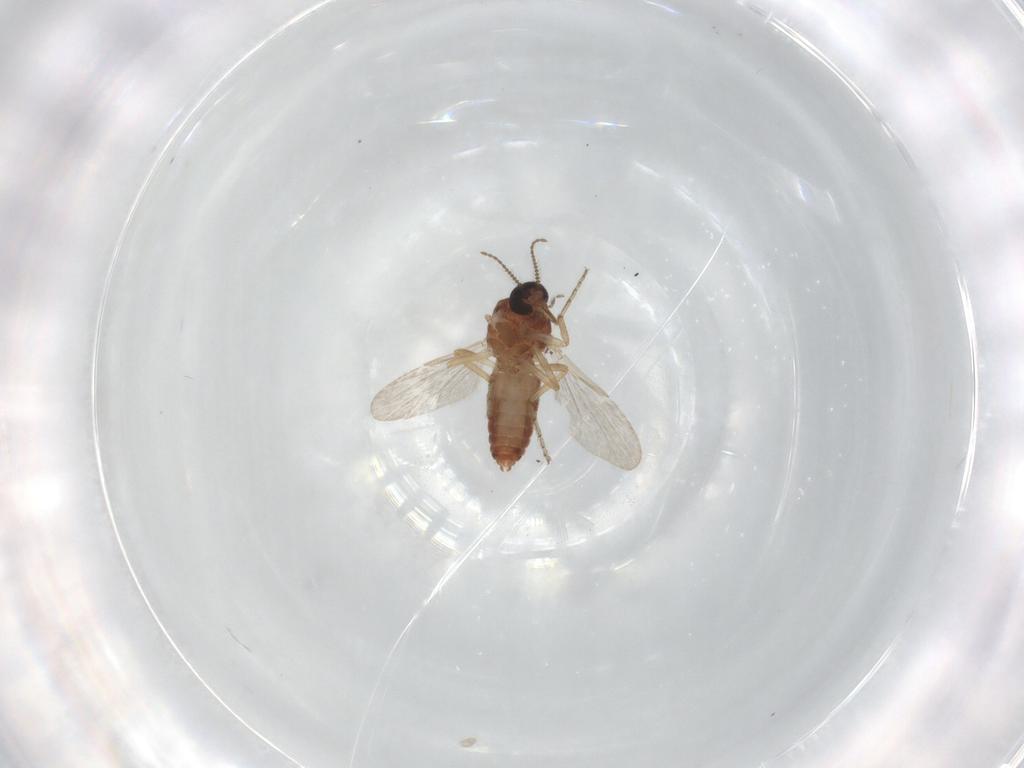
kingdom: Animalia
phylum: Arthropoda
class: Insecta
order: Diptera
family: Ceratopogonidae
